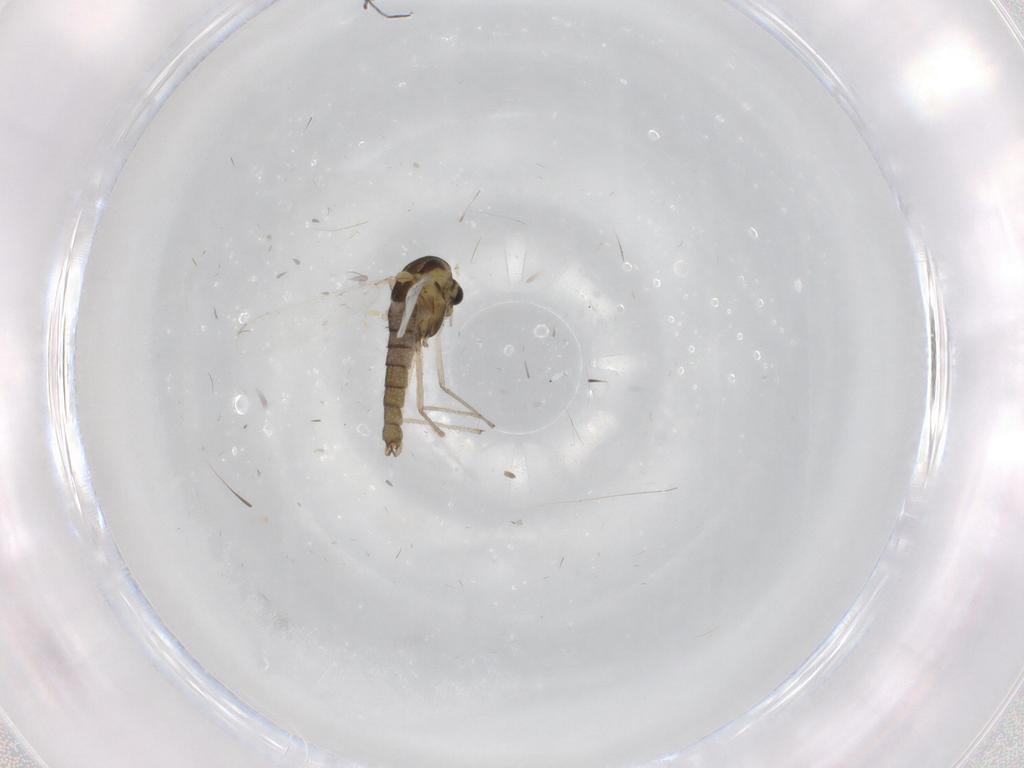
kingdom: Animalia
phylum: Arthropoda
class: Insecta
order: Diptera
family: Chironomidae
